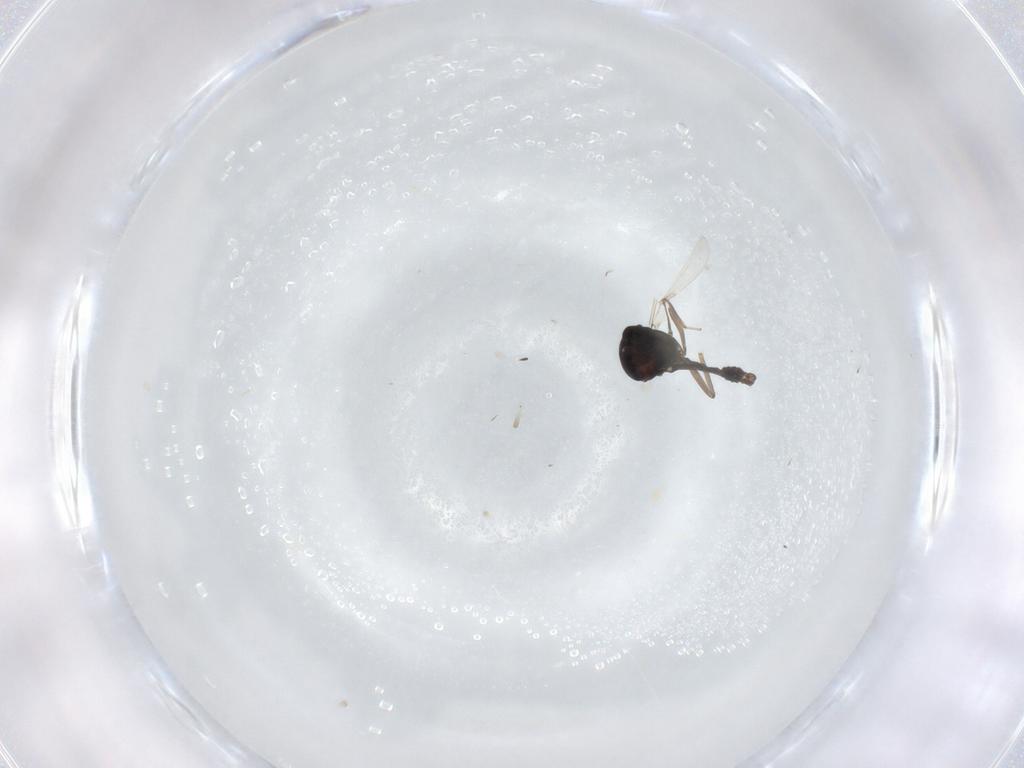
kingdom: Animalia
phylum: Arthropoda
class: Insecta
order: Diptera
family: Ceratopogonidae
